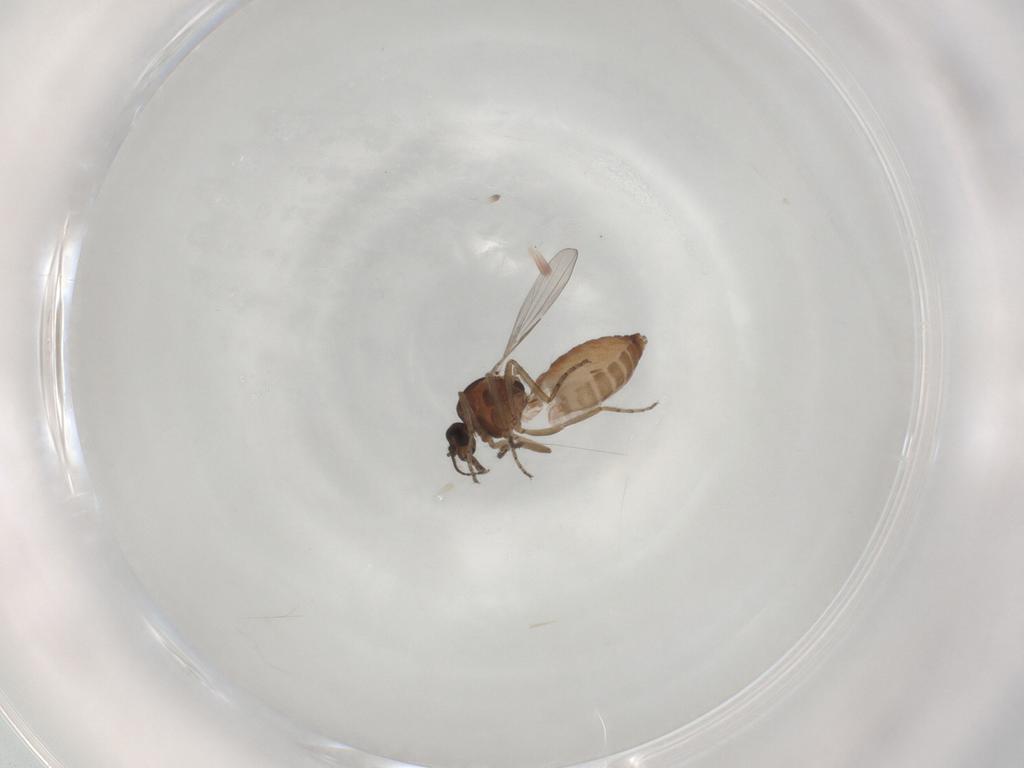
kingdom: Animalia
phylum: Arthropoda
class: Insecta
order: Diptera
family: Ceratopogonidae
